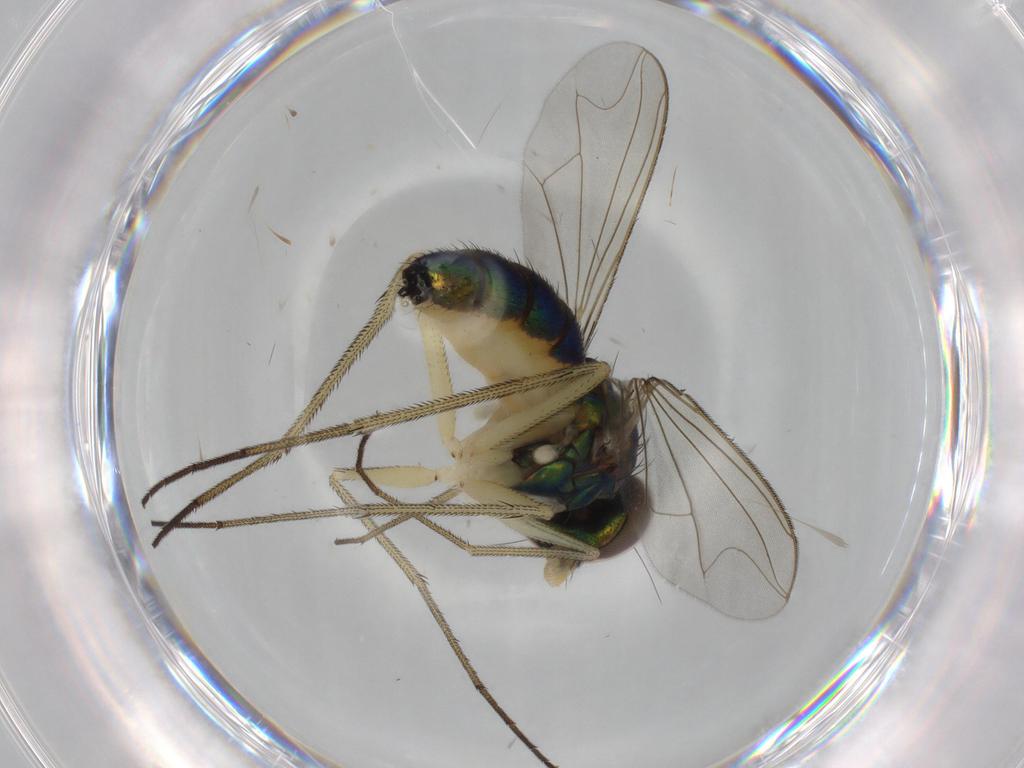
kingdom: Animalia
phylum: Arthropoda
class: Insecta
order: Diptera
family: Dolichopodidae
